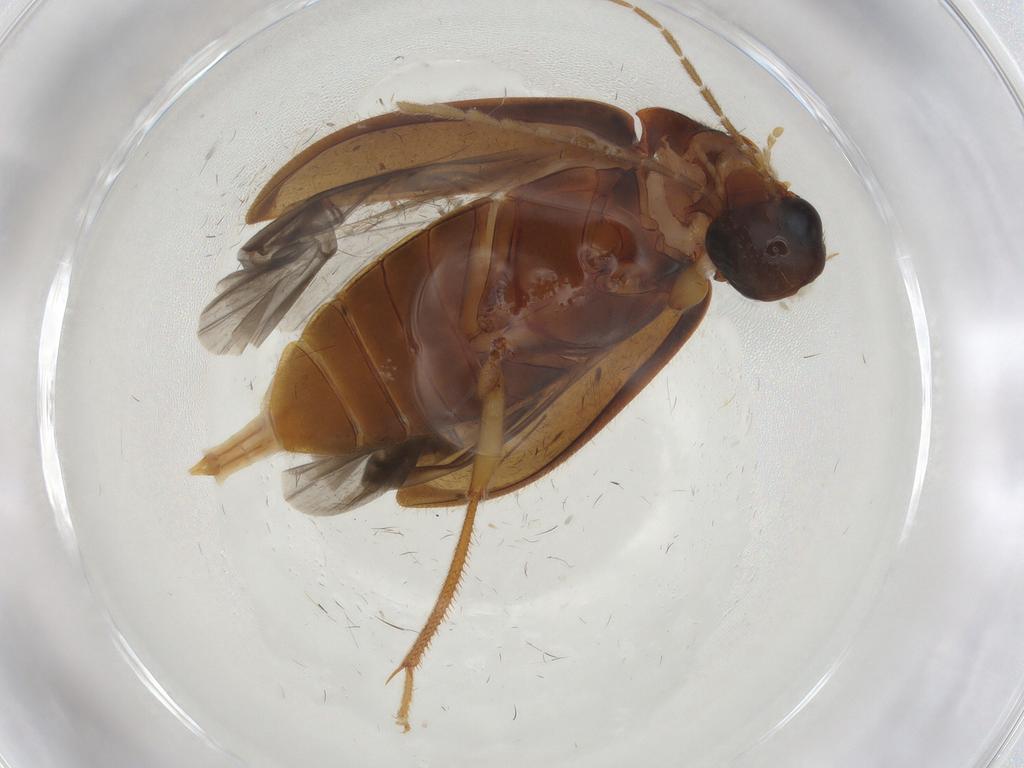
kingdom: Animalia
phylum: Arthropoda
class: Insecta
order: Coleoptera
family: Ptilodactylidae
